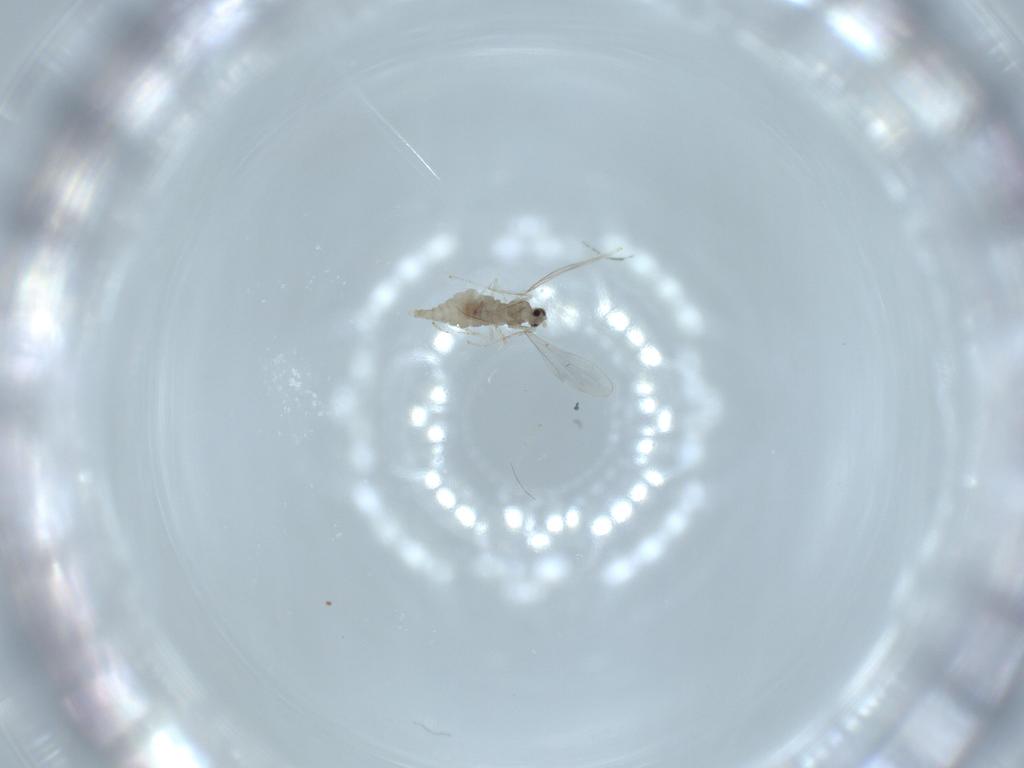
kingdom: Animalia
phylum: Arthropoda
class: Insecta
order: Diptera
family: Cecidomyiidae
